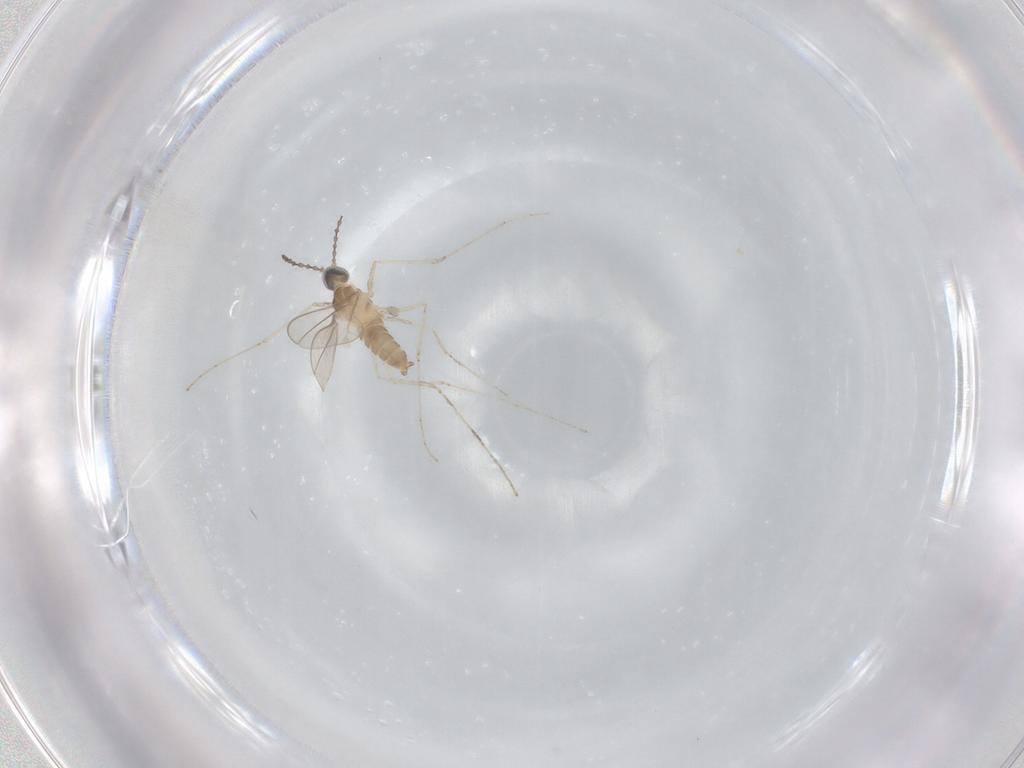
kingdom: Animalia
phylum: Arthropoda
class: Insecta
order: Diptera
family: Cecidomyiidae
